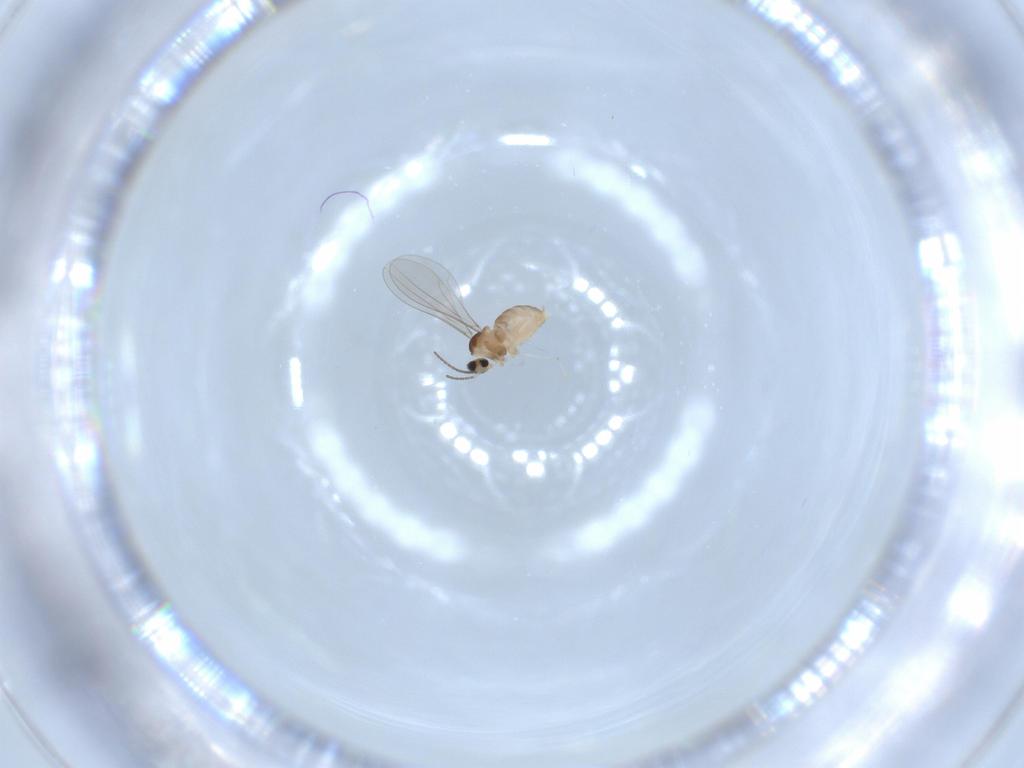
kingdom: Animalia
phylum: Arthropoda
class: Insecta
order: Diptera
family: Cecidomyiidae
